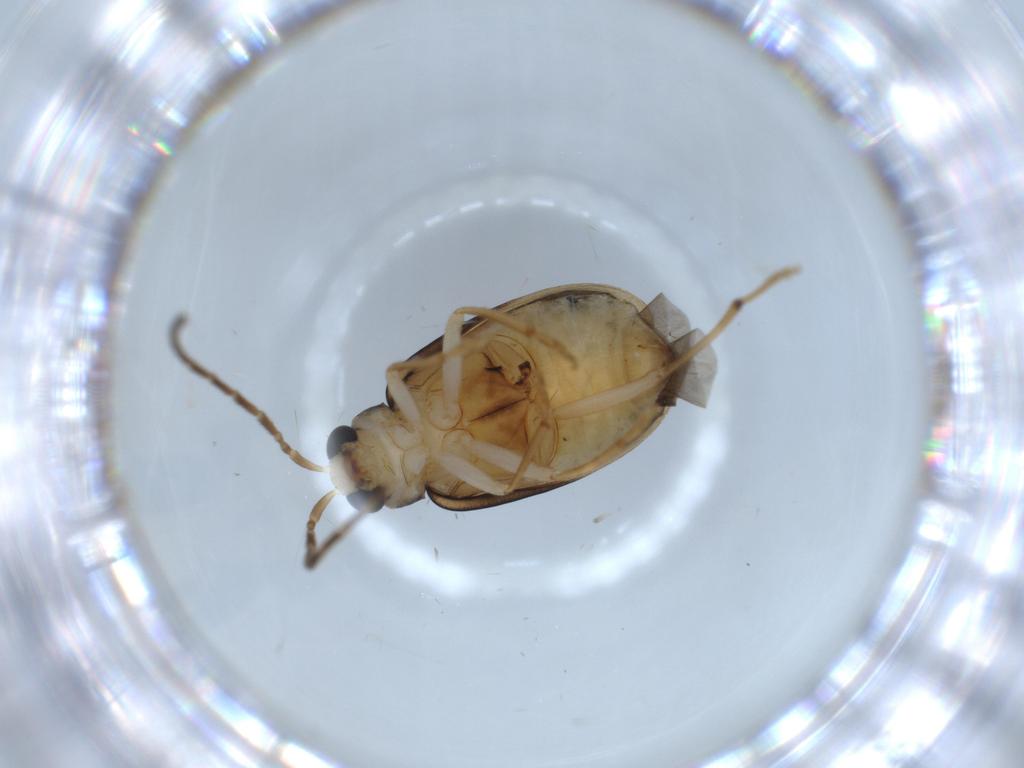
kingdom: Animalia
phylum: Arthropoda
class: Insecta
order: Coleoptera
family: Chrysomelidae
